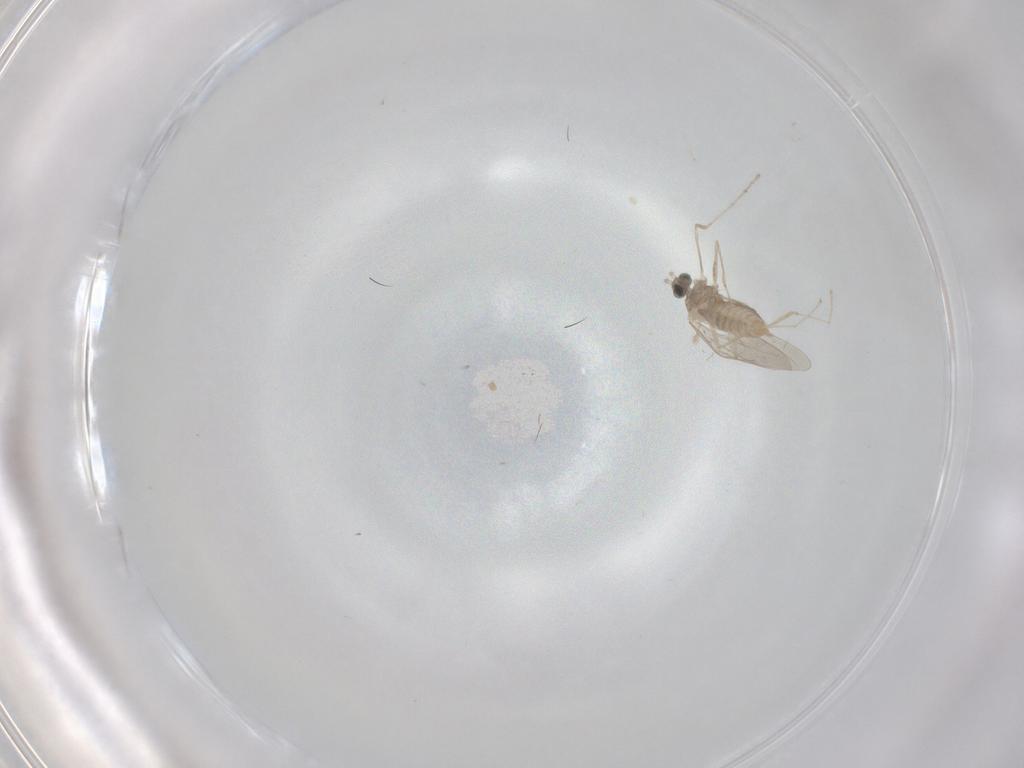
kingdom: Animalia
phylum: Arthropoda
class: Insecta
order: Diptera
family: Cecidomyiidae
